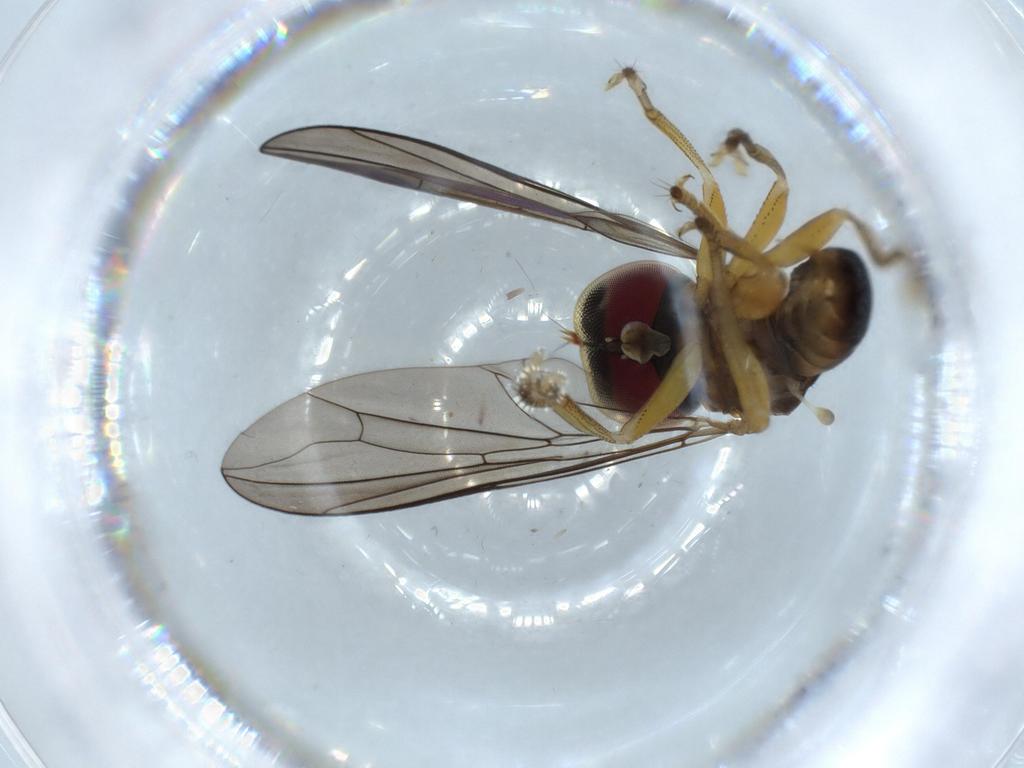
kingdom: Animalia
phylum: Arthropoda
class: Insecta
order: Diptera
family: Pipunculidae
